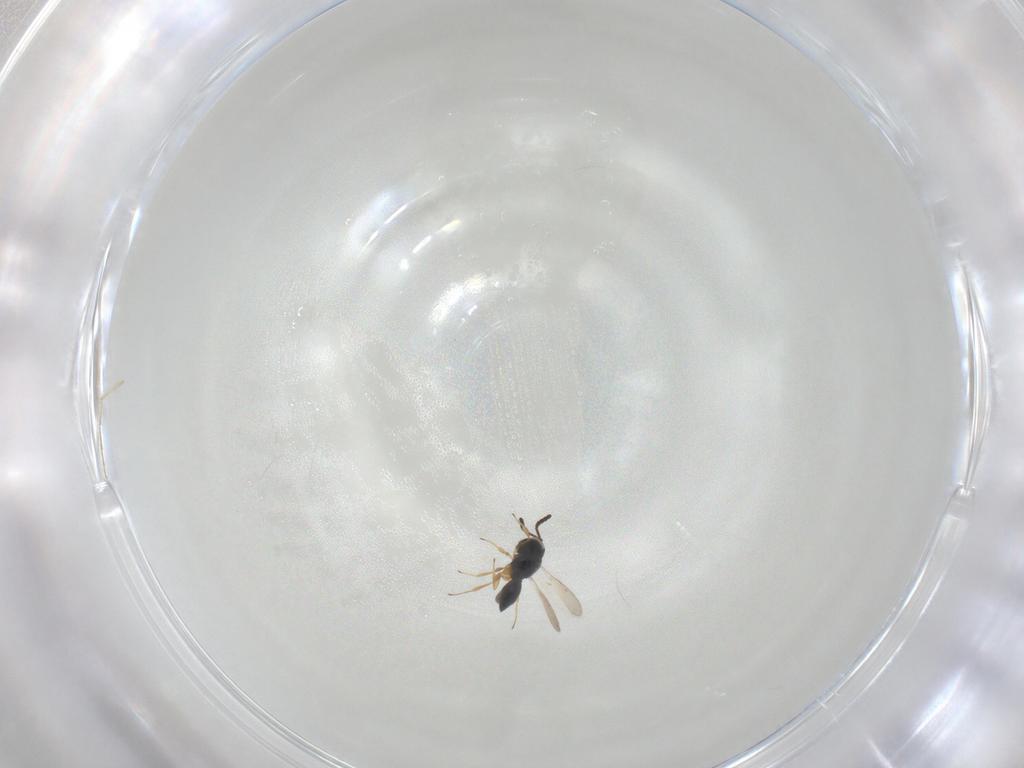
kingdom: Animalia
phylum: Arthropoda
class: Insecta
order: Hymenoptera
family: Scelionidae
